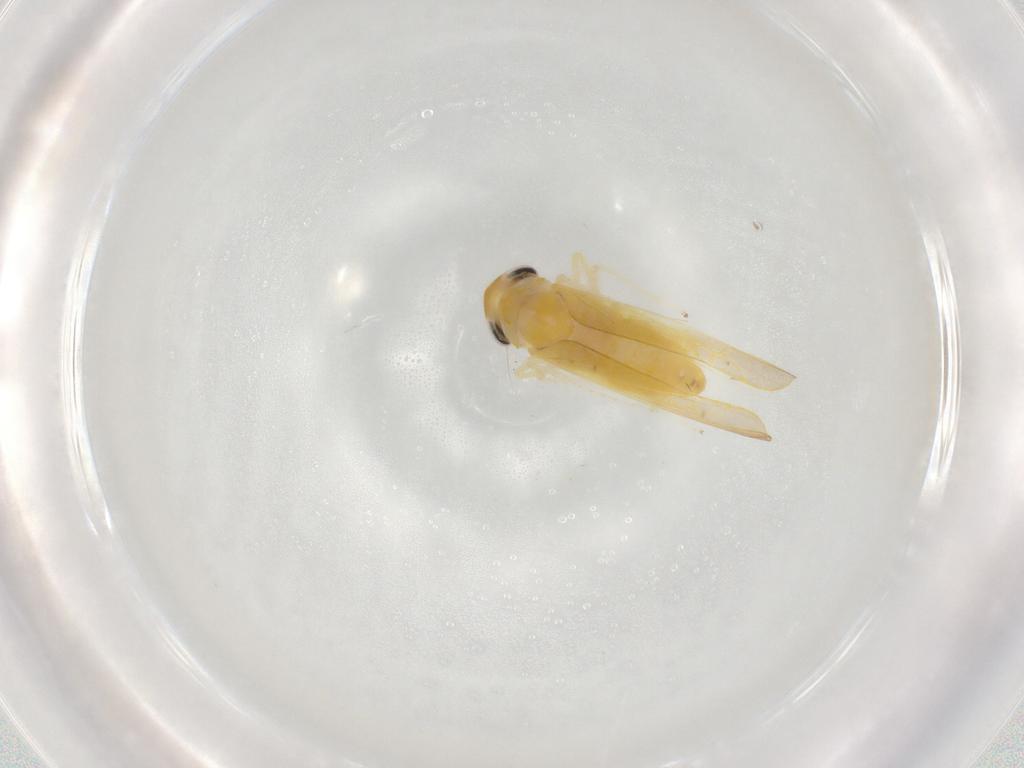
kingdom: Animalia
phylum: Arthropoda
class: Insecta
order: Hemiptera
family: Cicadellidae
